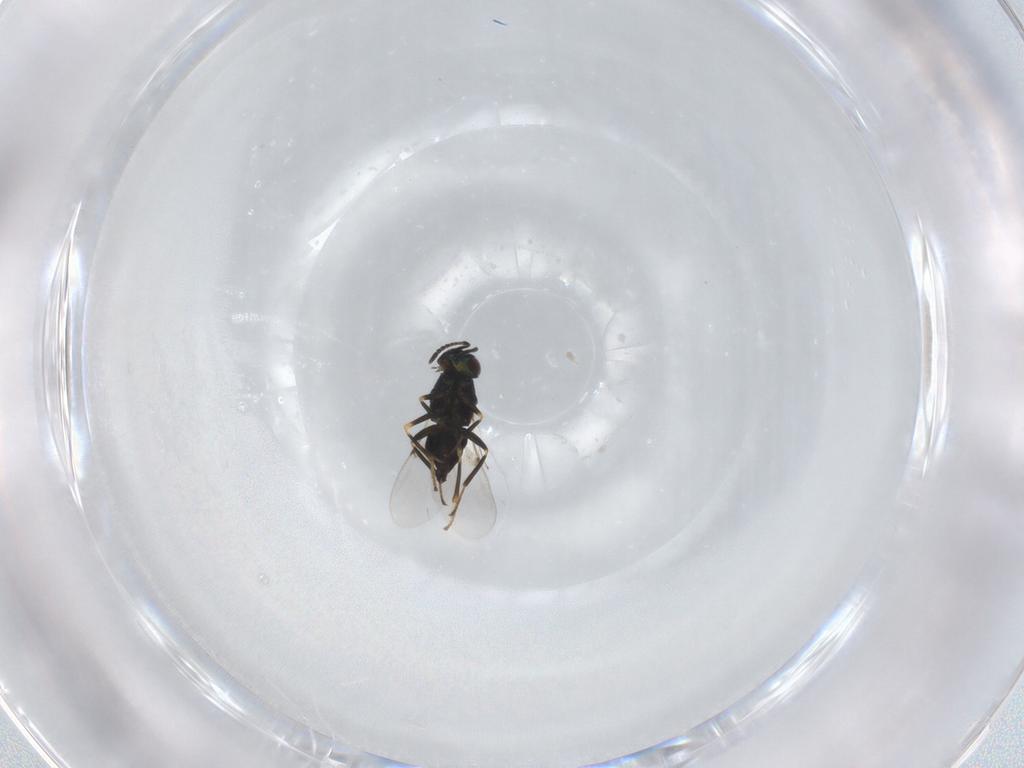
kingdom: Animalia
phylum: Arthropoda
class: Insecta
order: Hymenoptera
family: Encyrtidae
